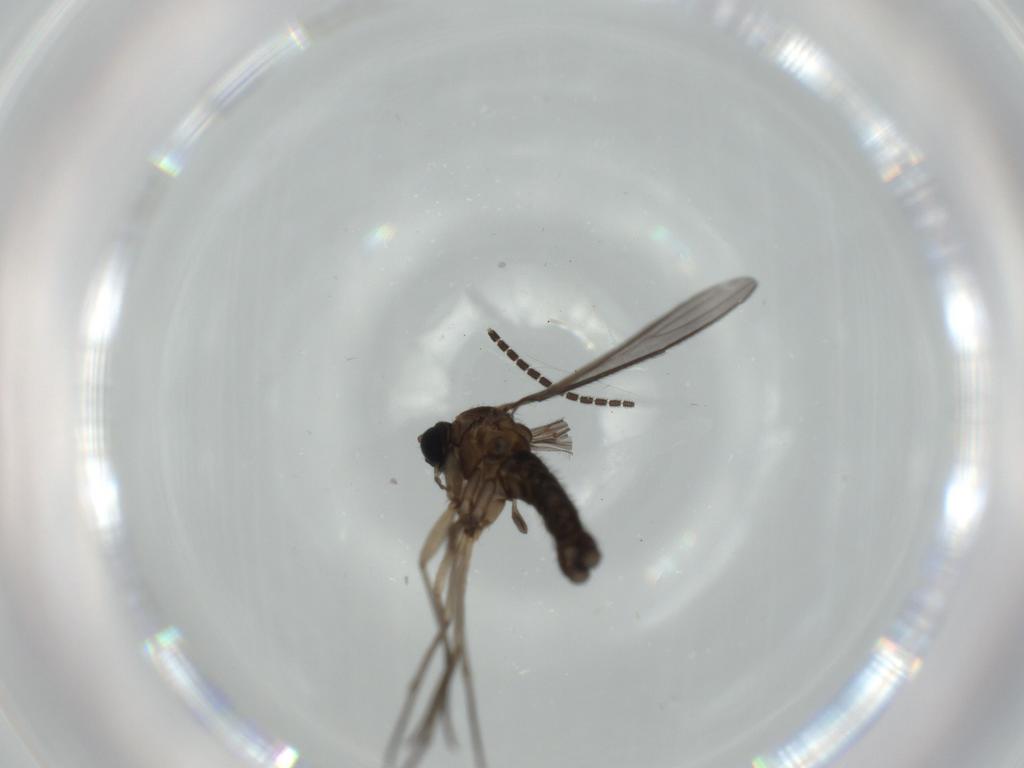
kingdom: Animalia
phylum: Arthropoda
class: Insecta
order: Diptera
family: Sciaridae
